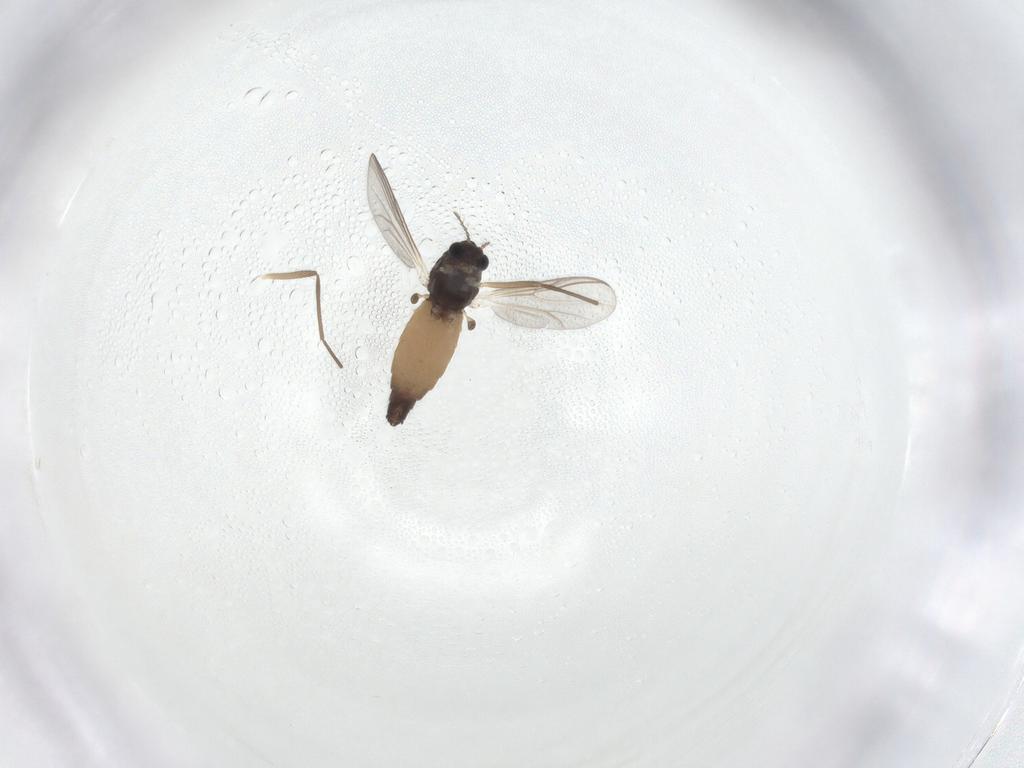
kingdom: Animalia
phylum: Arthropoda
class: Insecta
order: Diptera
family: Chironomidae
